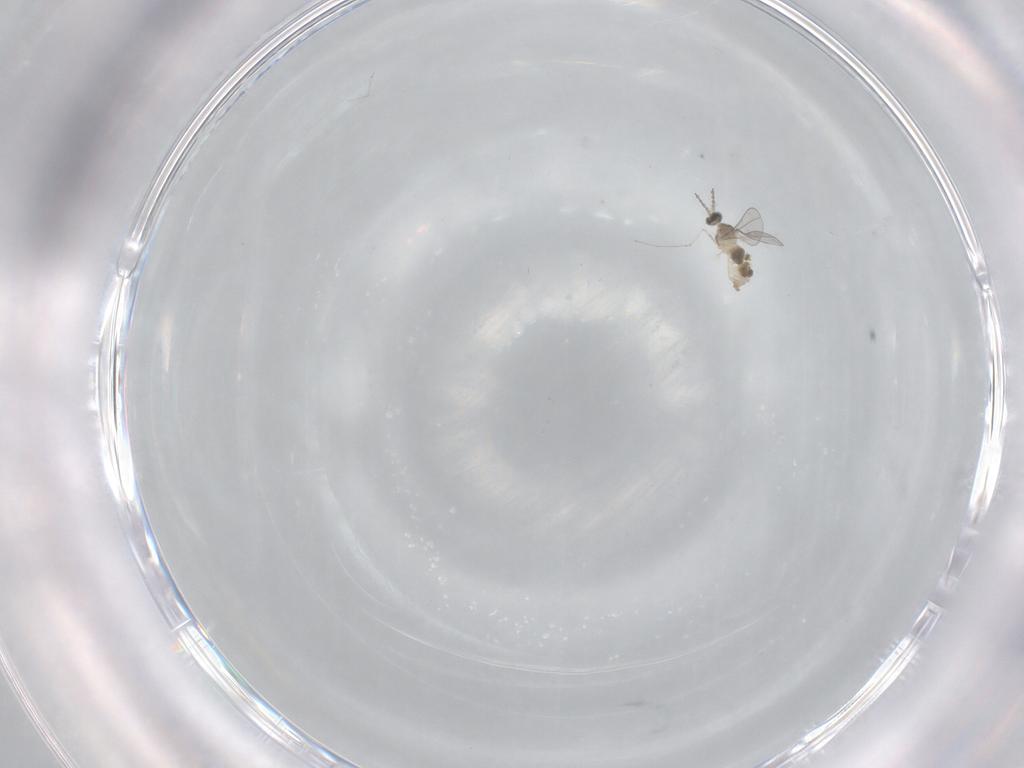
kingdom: Animalia
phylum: Arthropoda
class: Insecta
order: Diptera
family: Cecidomyiidae
